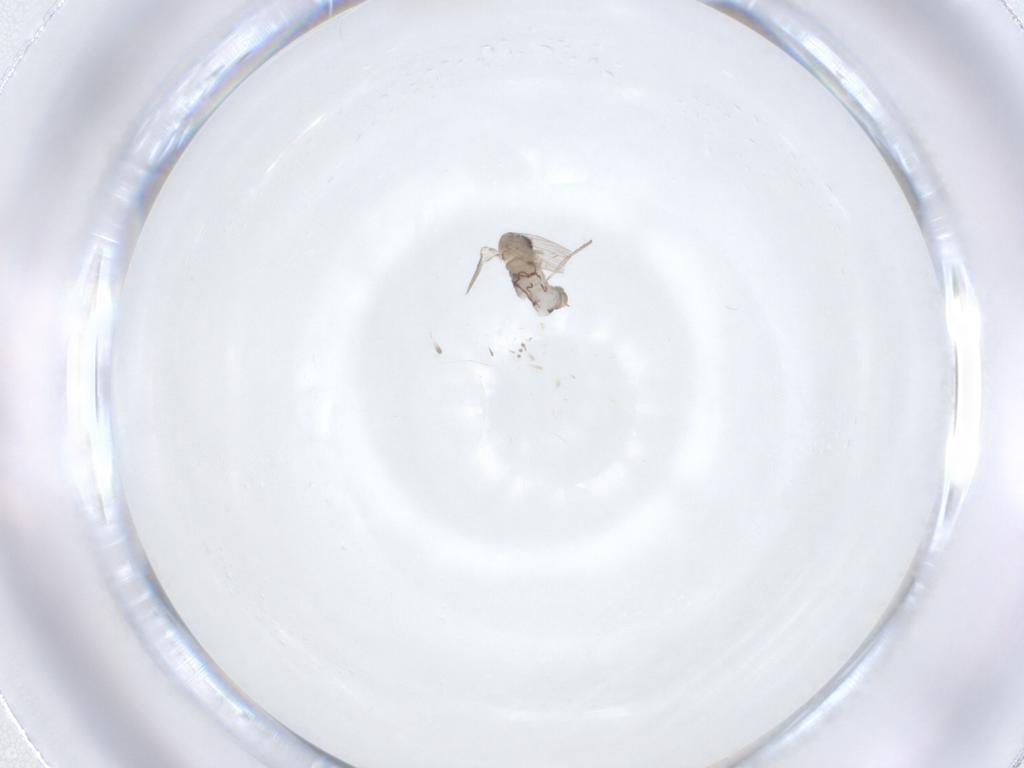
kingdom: Animalia
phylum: Arthropoda
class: Insecta
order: Diptera
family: Psychodidae
